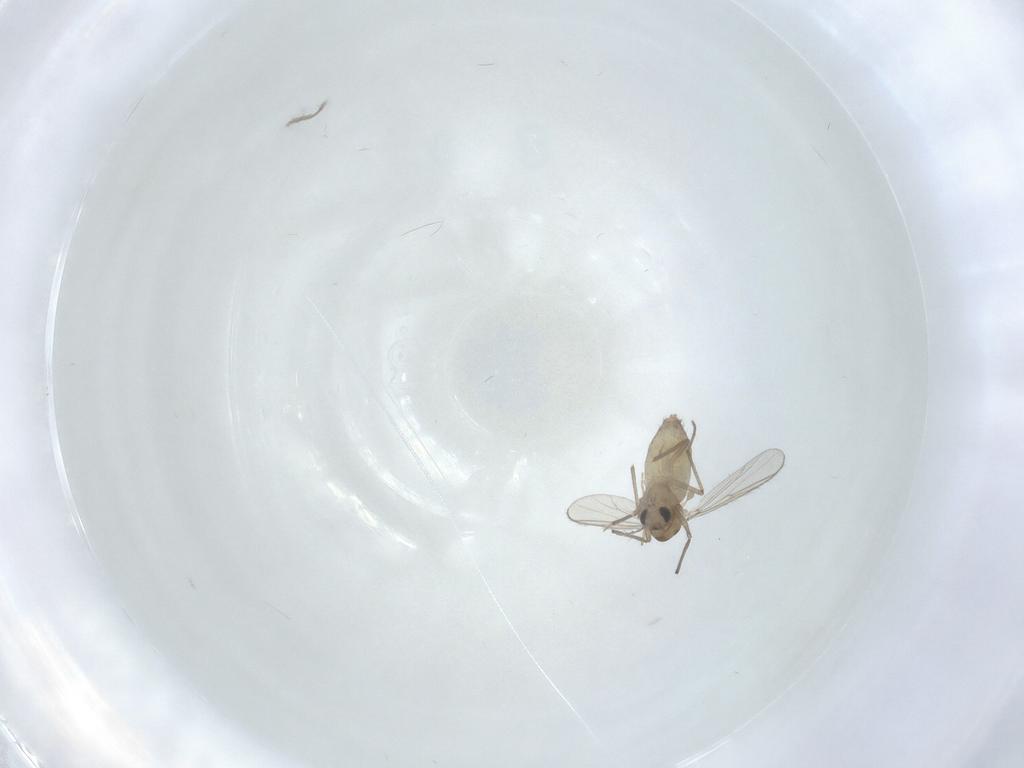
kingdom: Animalia
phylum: Arthropoda
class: Insecta
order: Diptera
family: Chironomidae
